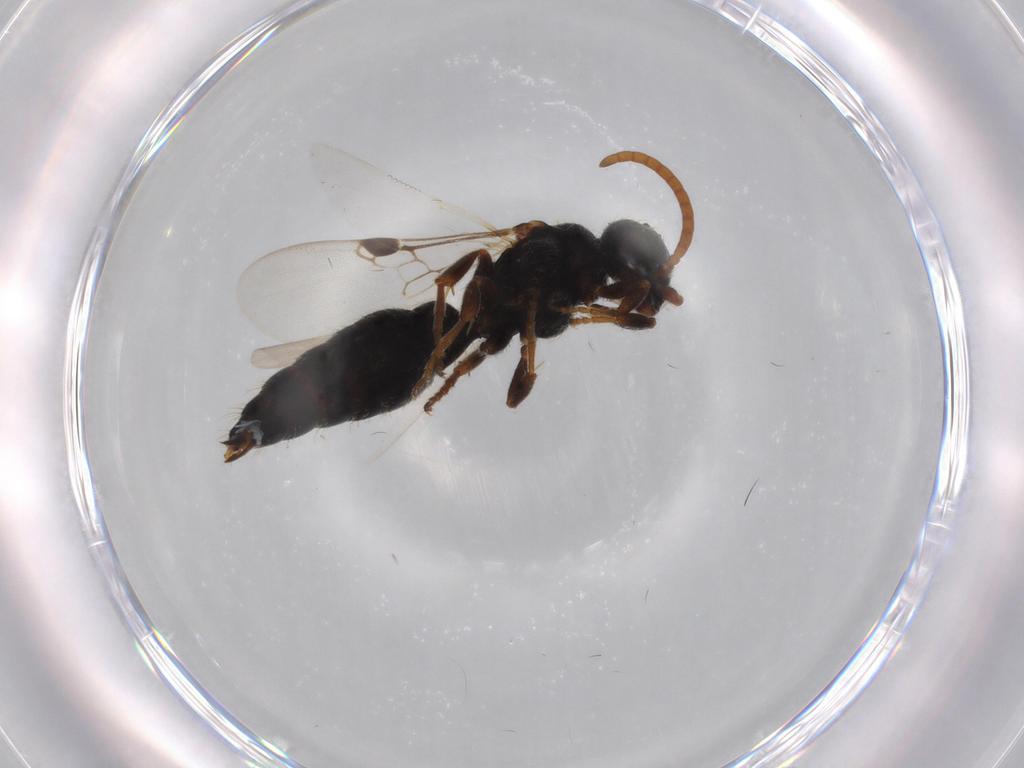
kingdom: Animalia
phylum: Arthropoda
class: Insecta
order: Hymenoptera
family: Tiphiidae
